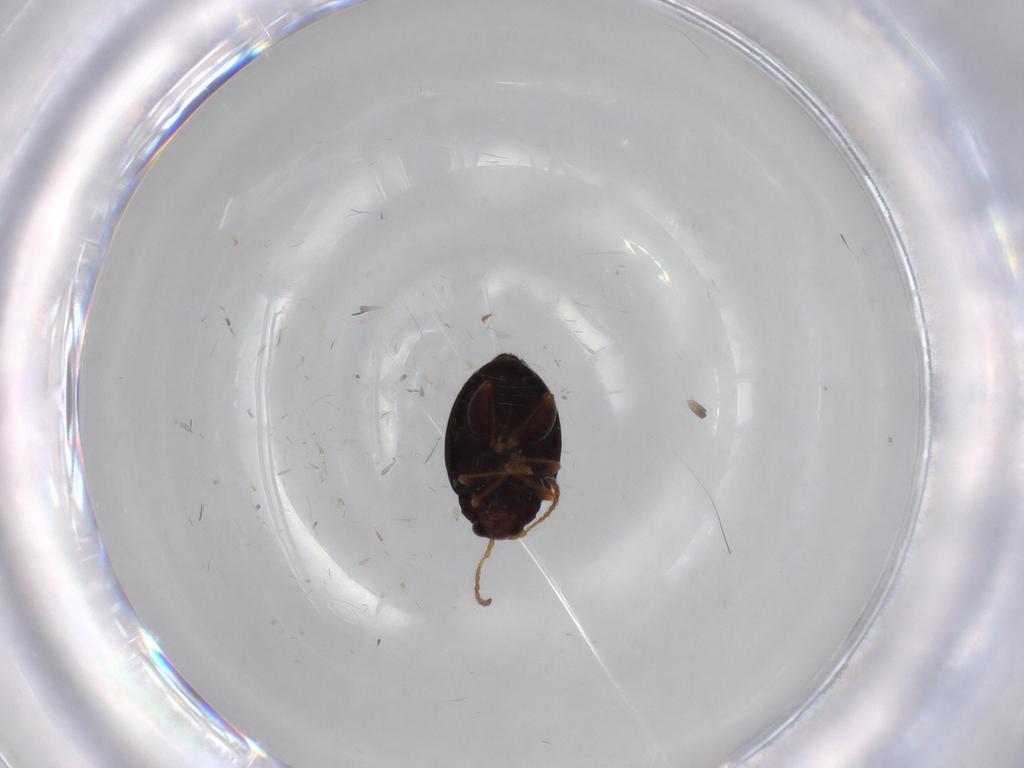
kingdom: Animalia
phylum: Arthropoda
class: Insecta
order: Coleoptera
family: Chrysomelidae
